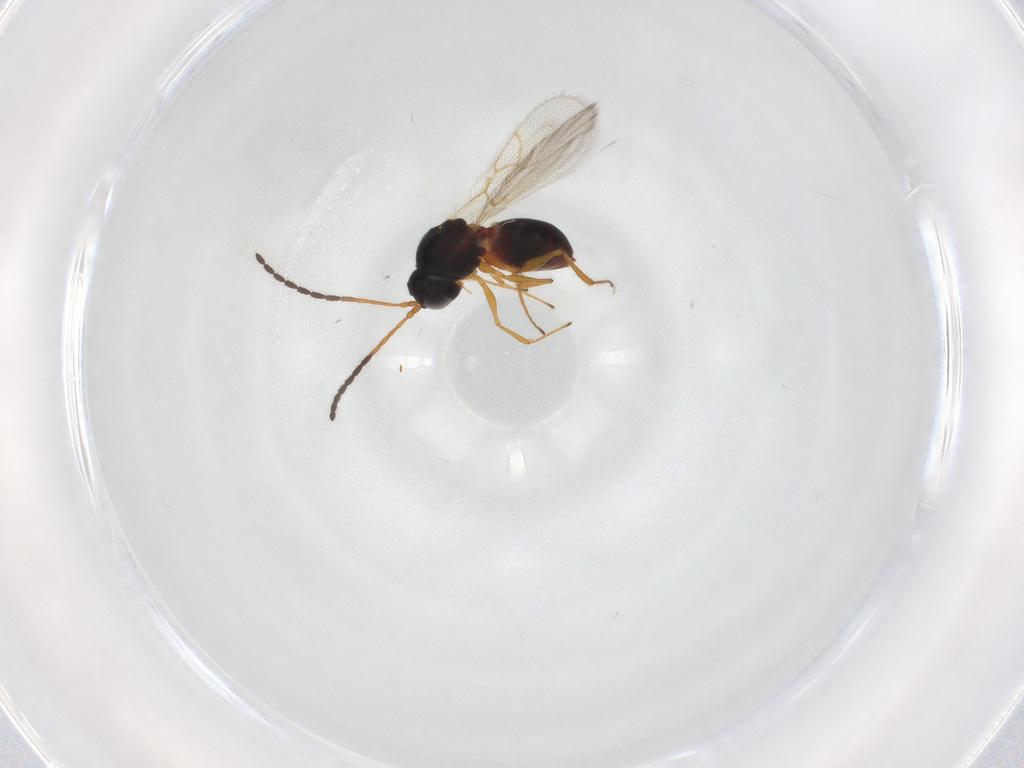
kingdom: Animalia
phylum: Arthropoda
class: Insecta
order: Hymenoptera
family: Figitidae
